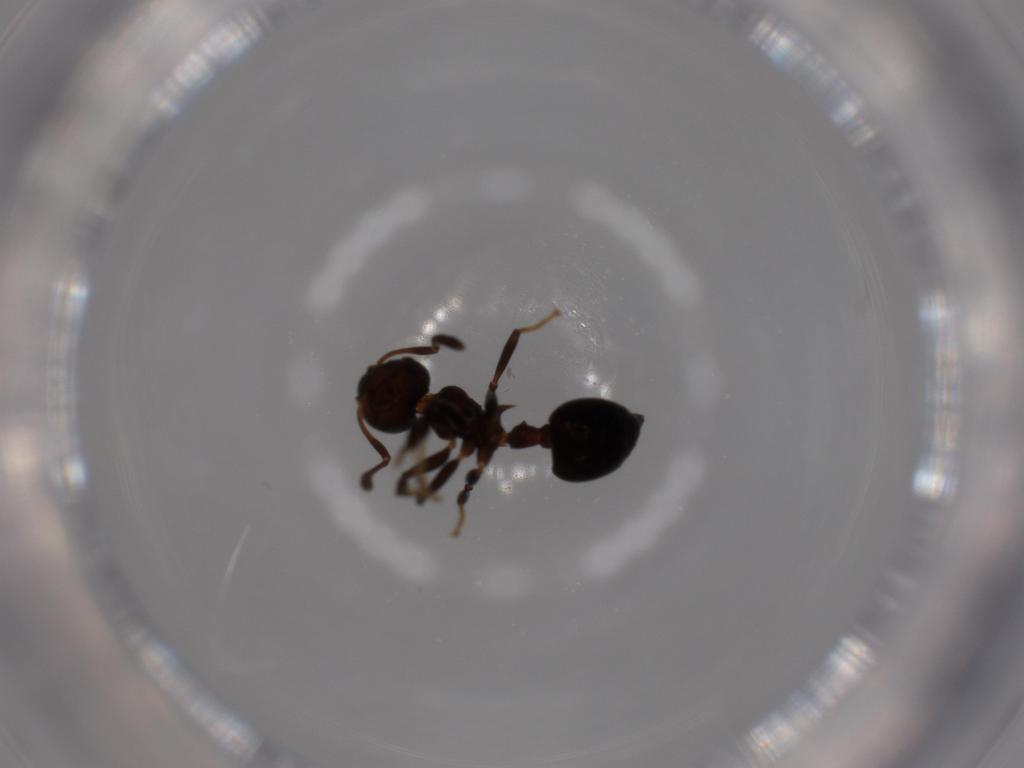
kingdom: Animalia
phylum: Arthropoda
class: Insecta
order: Hymenoptera
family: Formicidae
